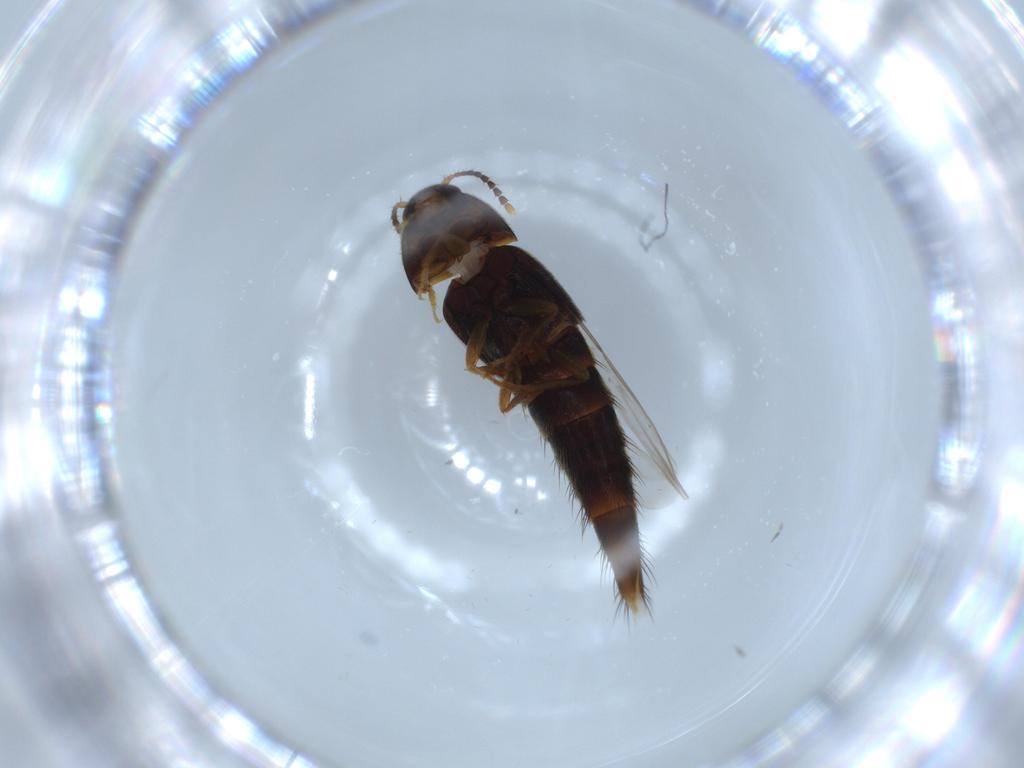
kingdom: Animalia
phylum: Arthropoda
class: Insecta
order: Coleoptera
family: Staphylinidae
